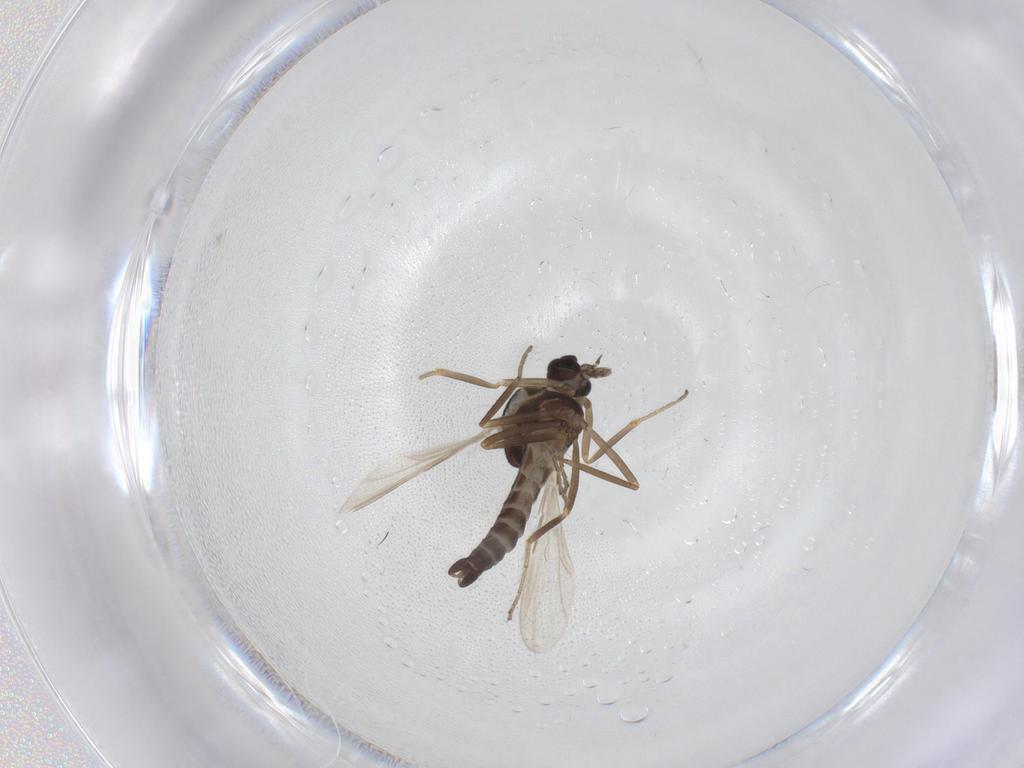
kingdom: Animalia
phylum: Arthropoda
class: Insecta
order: Diptera
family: Ceratopogonidae
